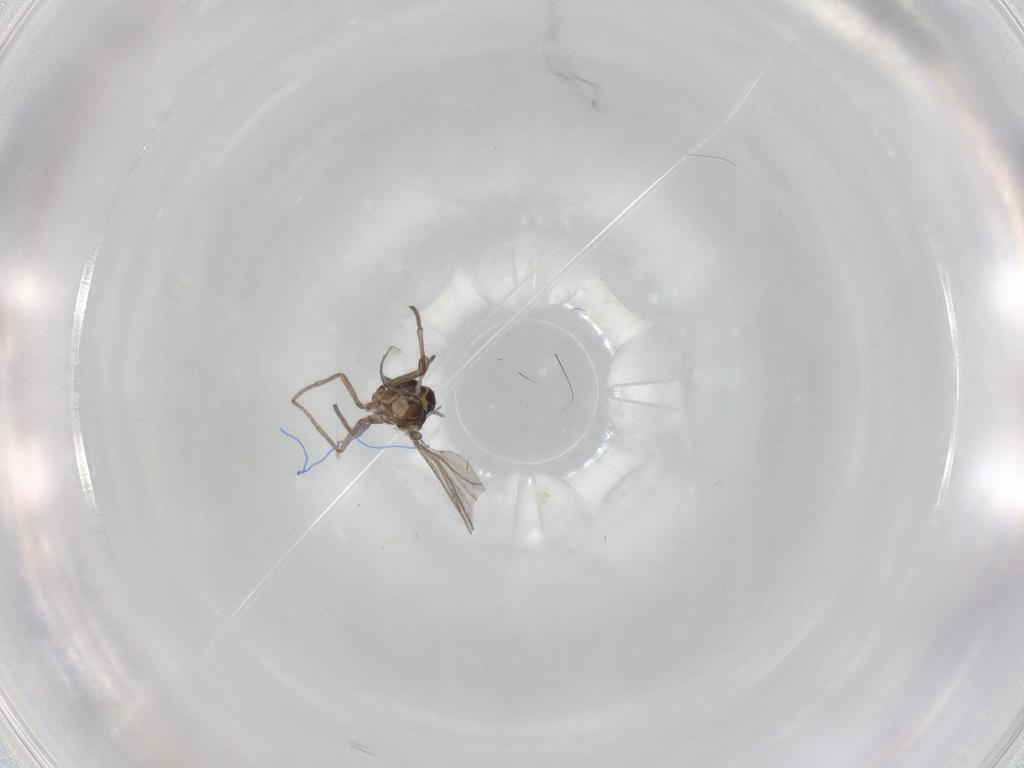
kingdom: Animalia
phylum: Arthropoda
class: Insecta
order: Diptera
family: Sciaridae
